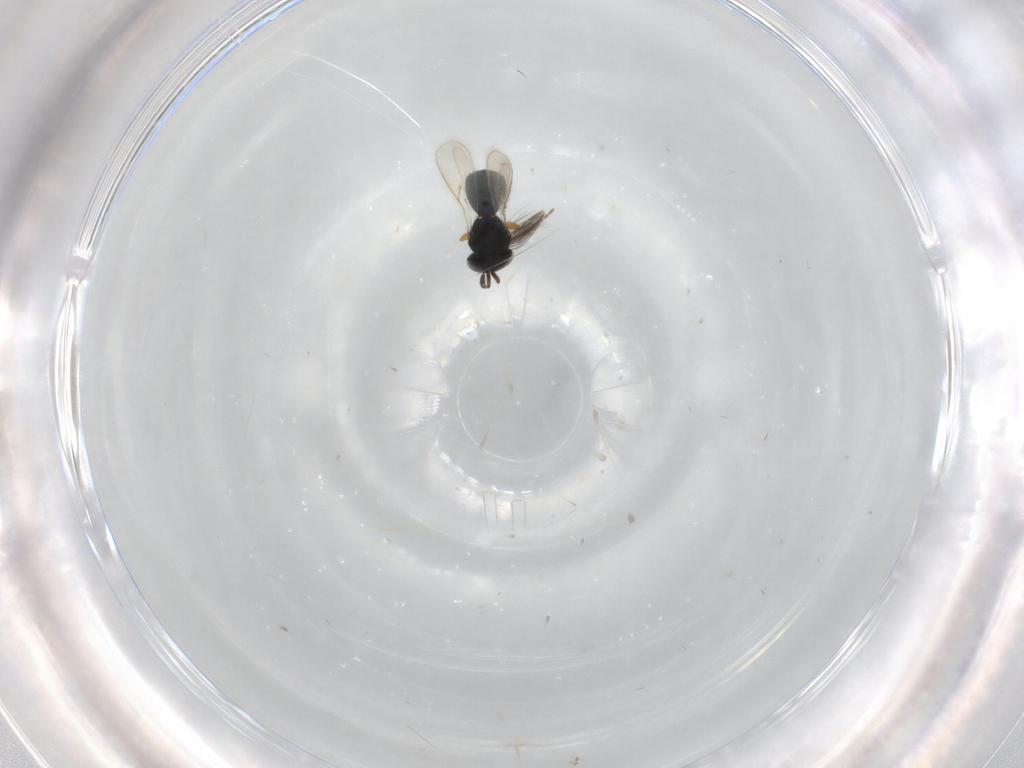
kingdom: Animalia
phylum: Arthropoda
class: Insecta
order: Hymenoptera
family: Scelionidae
